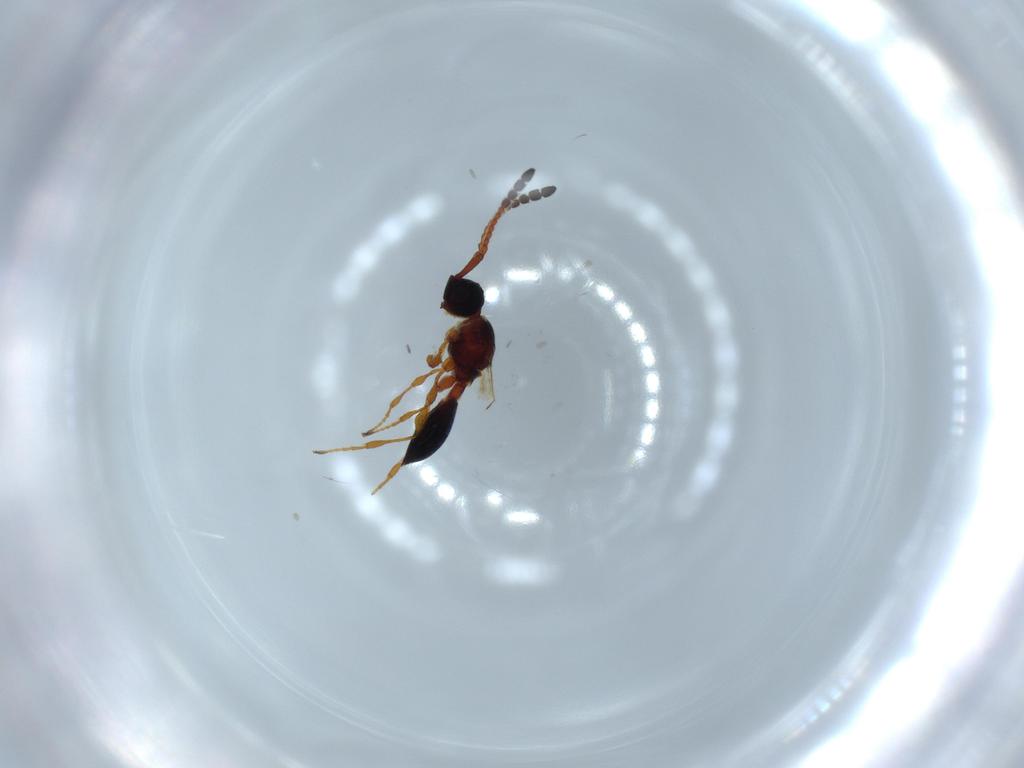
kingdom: Animalia
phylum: Arthropoda
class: Insecta
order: Hymenoptera
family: Diapriidae
